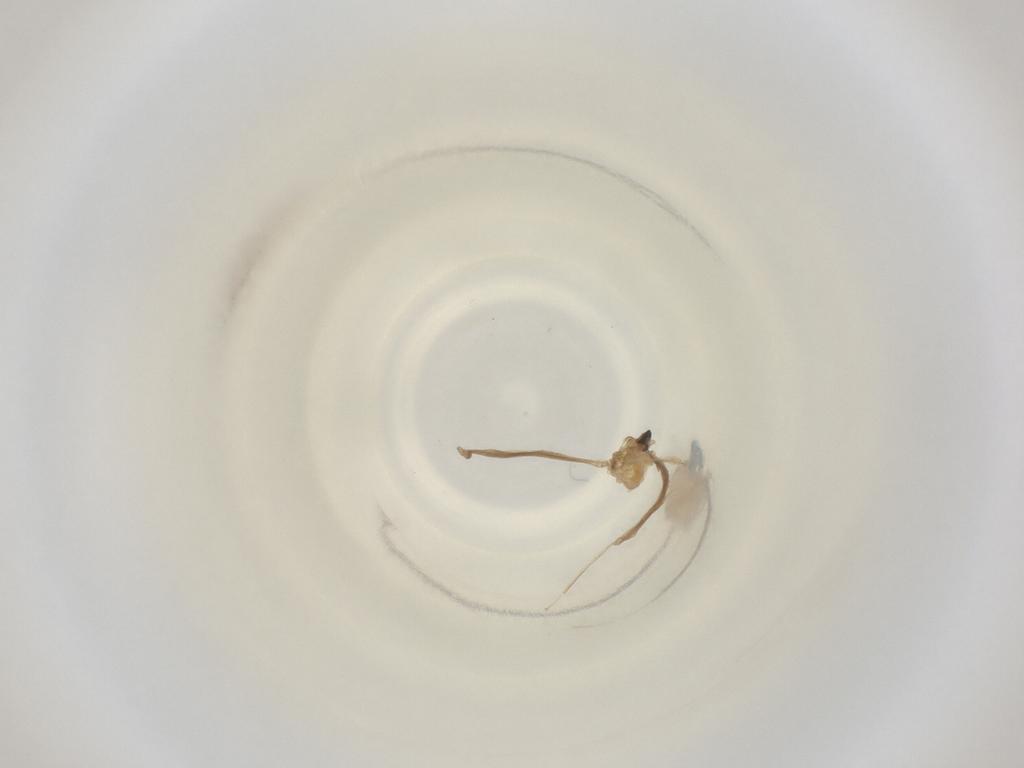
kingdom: Animalia
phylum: Arthropoda
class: Insecta
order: Diptera
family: Cecidomyiidae
